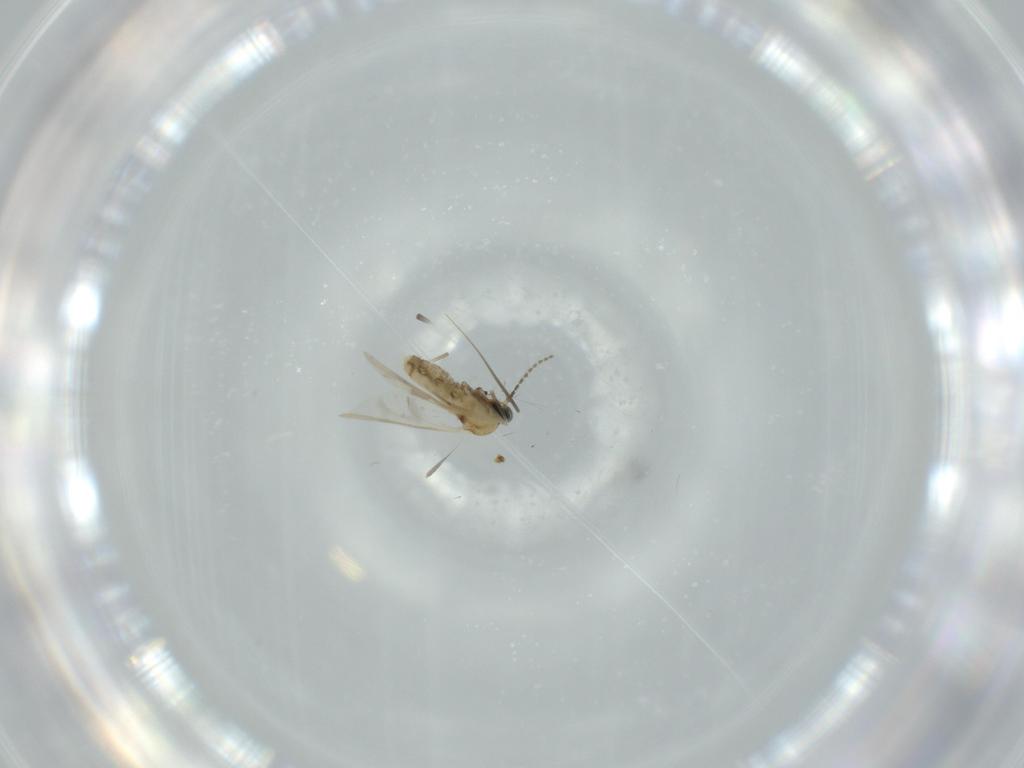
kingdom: Animalia
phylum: Arthropoda
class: Insecta
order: Diptera
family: Cecidomyiidae
